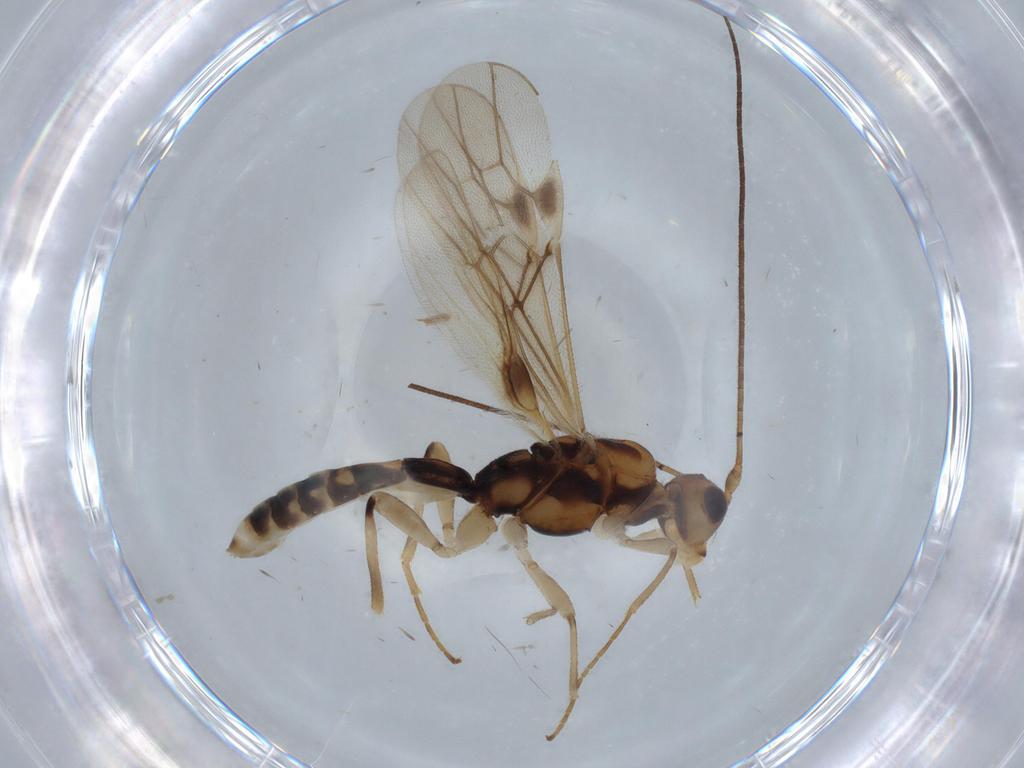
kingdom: Animalia
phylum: Arthropoda
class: Insecta
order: Hymenoptera
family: Braconidae
